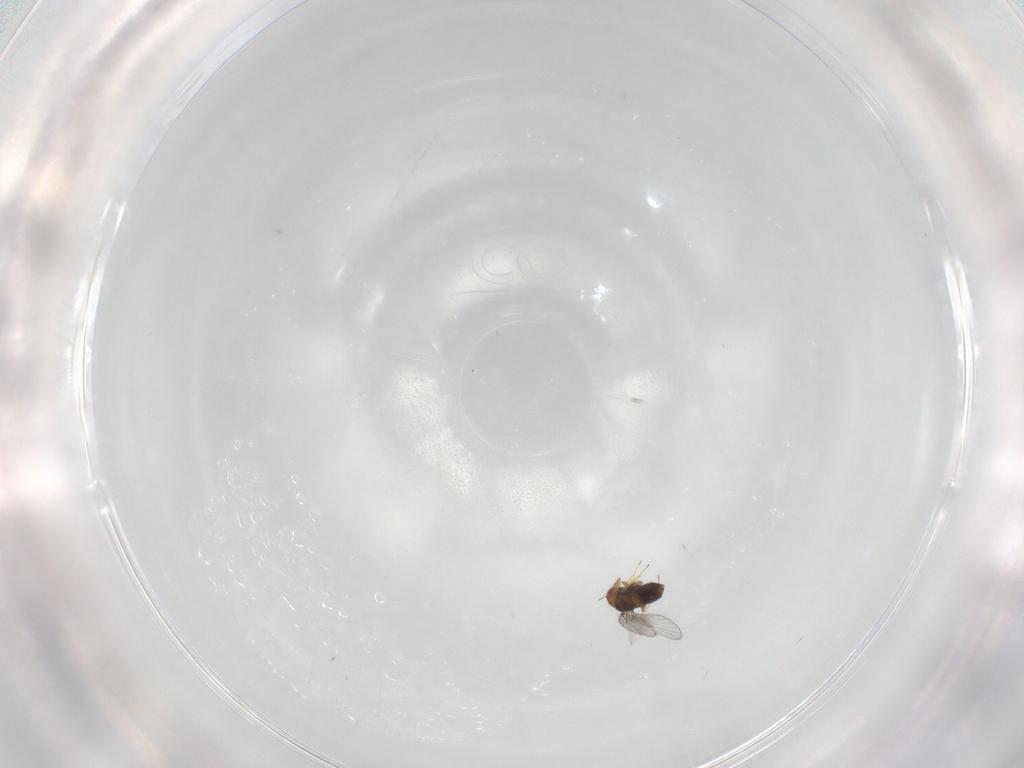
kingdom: Animalia
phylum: Arthropoda
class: Insecta
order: Hymenoptera
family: Trichogrammatidae
